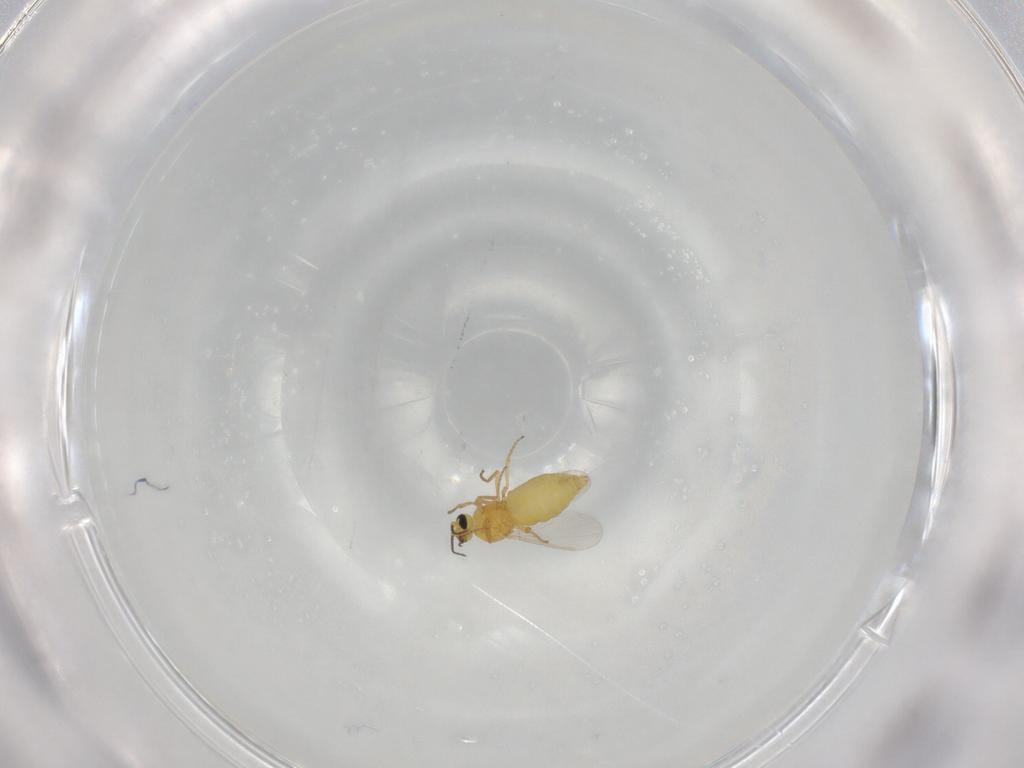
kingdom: Animalia
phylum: Arthropoda
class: Insecta
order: Diptera
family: Ceratopogonidae
